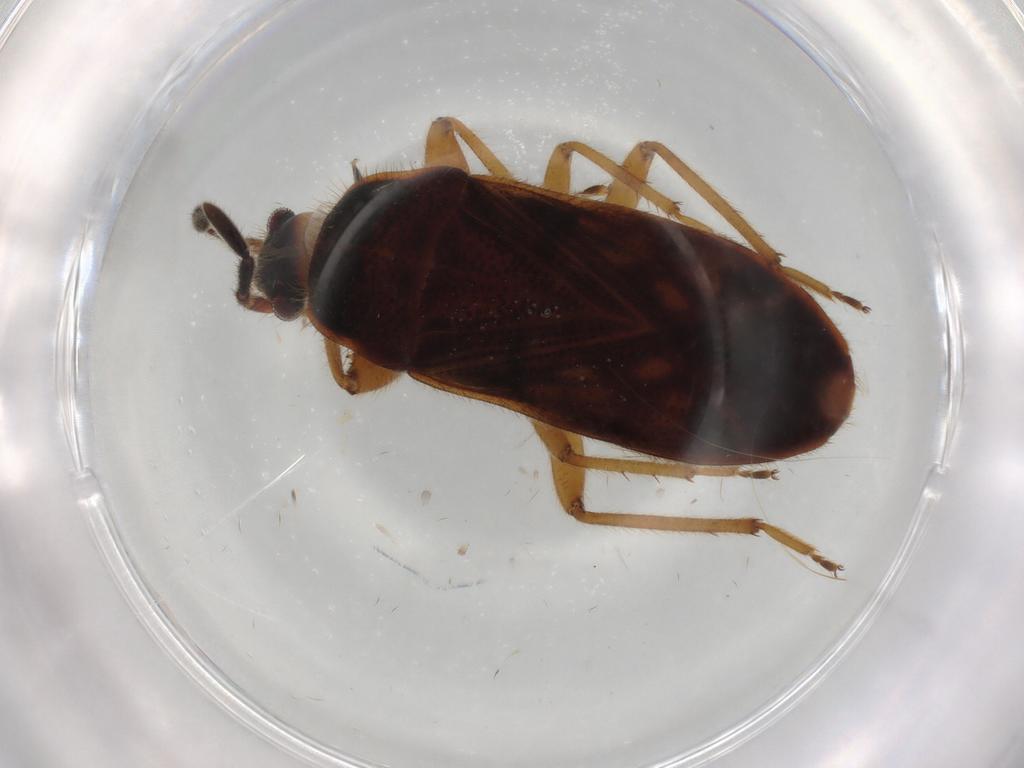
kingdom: Animalia
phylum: Arthropoda
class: Insecta
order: Hemiptera
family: Rhyparochromidae
